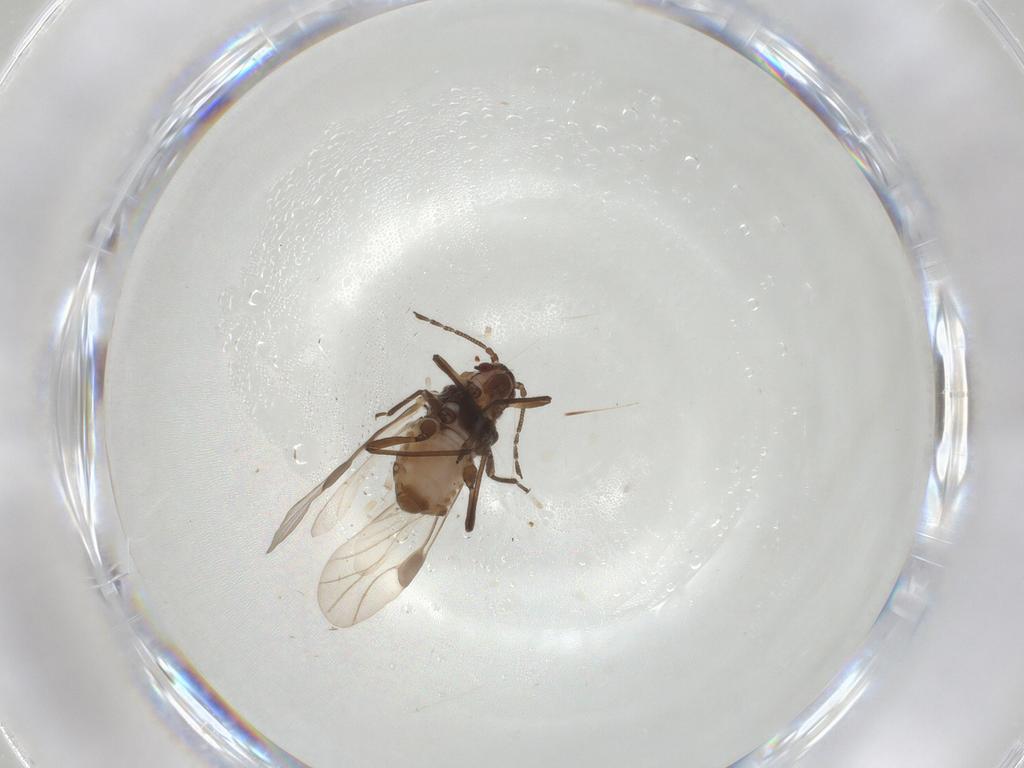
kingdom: Animalia
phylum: Arthropoda
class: Insecta
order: Hemiptera
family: Aphididae
